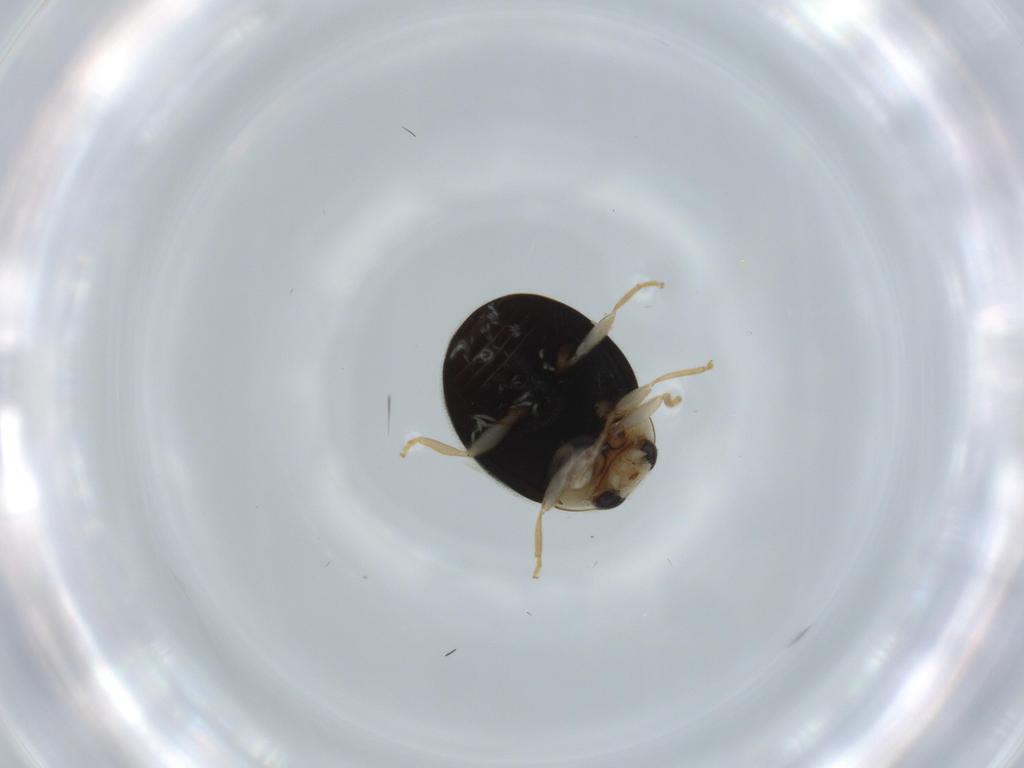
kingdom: Animalia
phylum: Arthropoda
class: Insecta
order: Coleoptera
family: Coccinellidae
